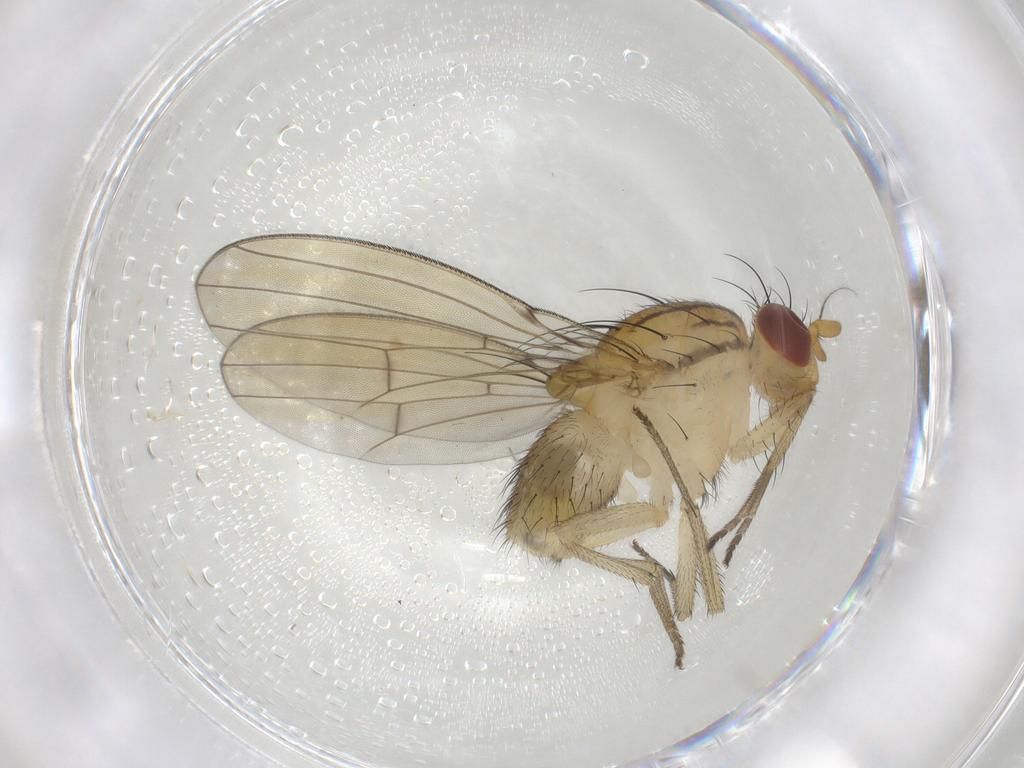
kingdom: Animalia
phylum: Arthropoda
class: Insecta
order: Diptera
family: Lauxaniidae
